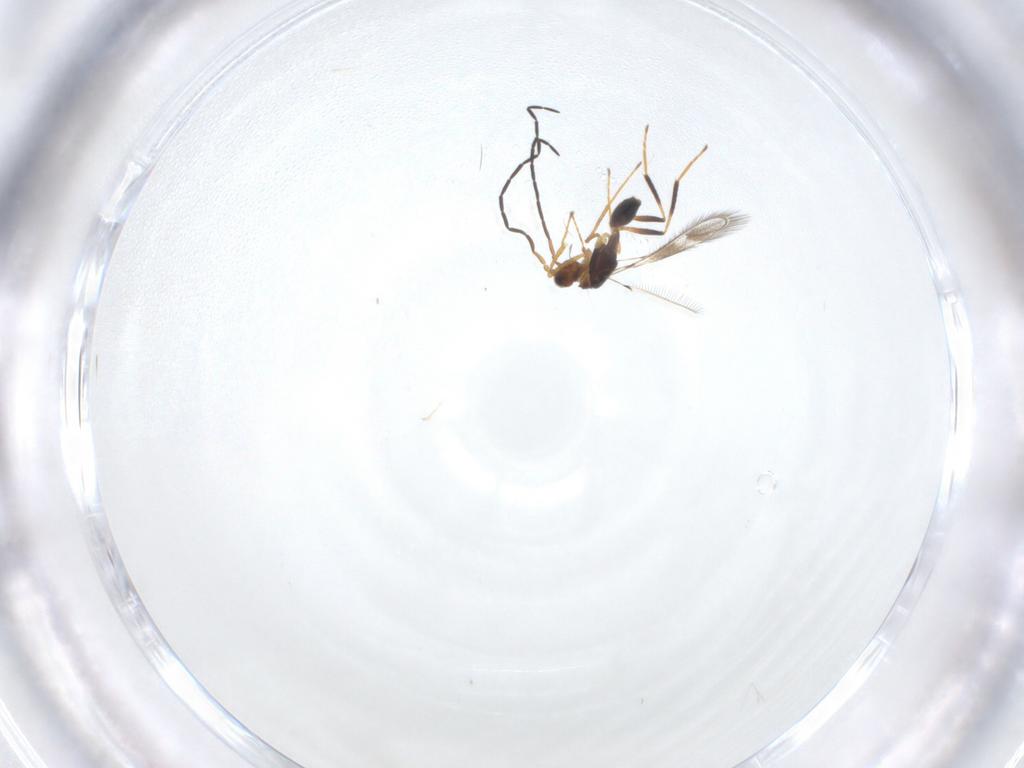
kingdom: Animalia
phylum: Arthropoda
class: Insecta
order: Hymenoptera
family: Mymaridae
